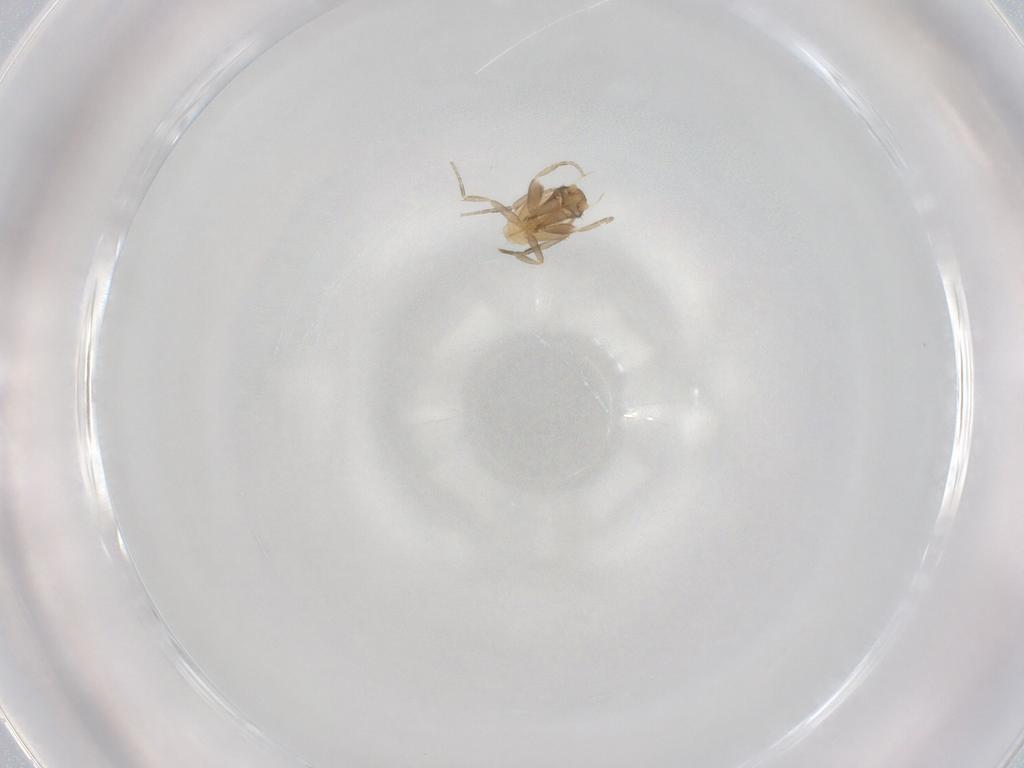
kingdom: Animalia
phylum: Arthropoda
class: Insecta
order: Diptera
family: Phoridae
